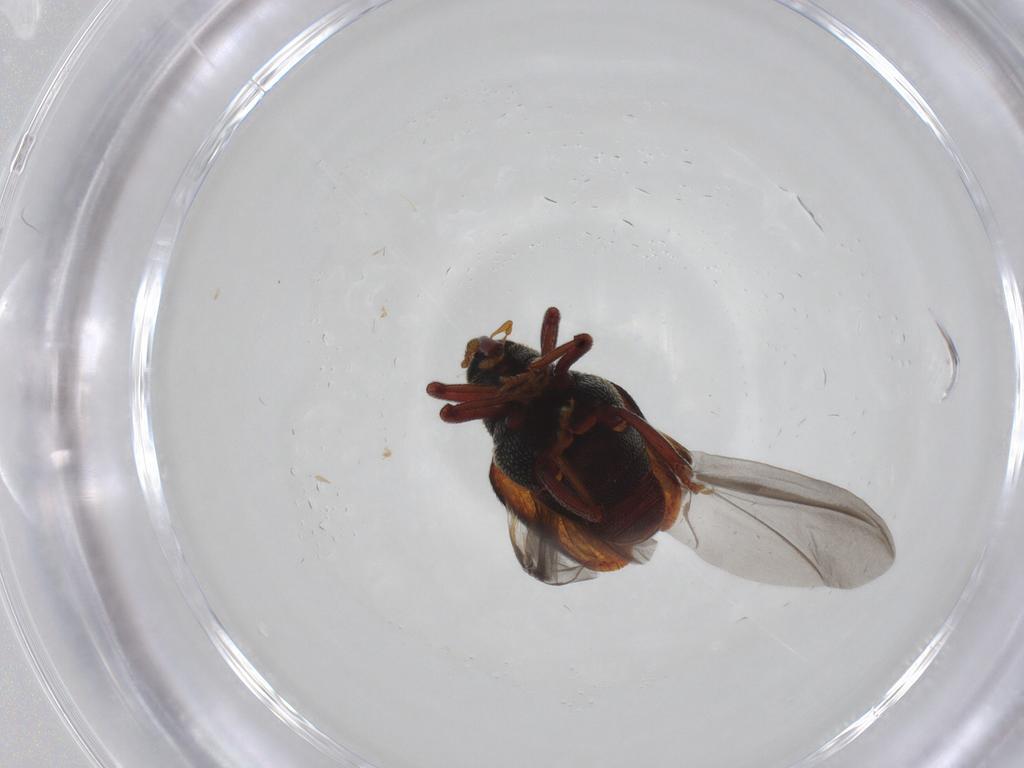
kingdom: Animalia
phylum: Arthropoda
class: Insecta
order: Coleoptera
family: Curculionidae
